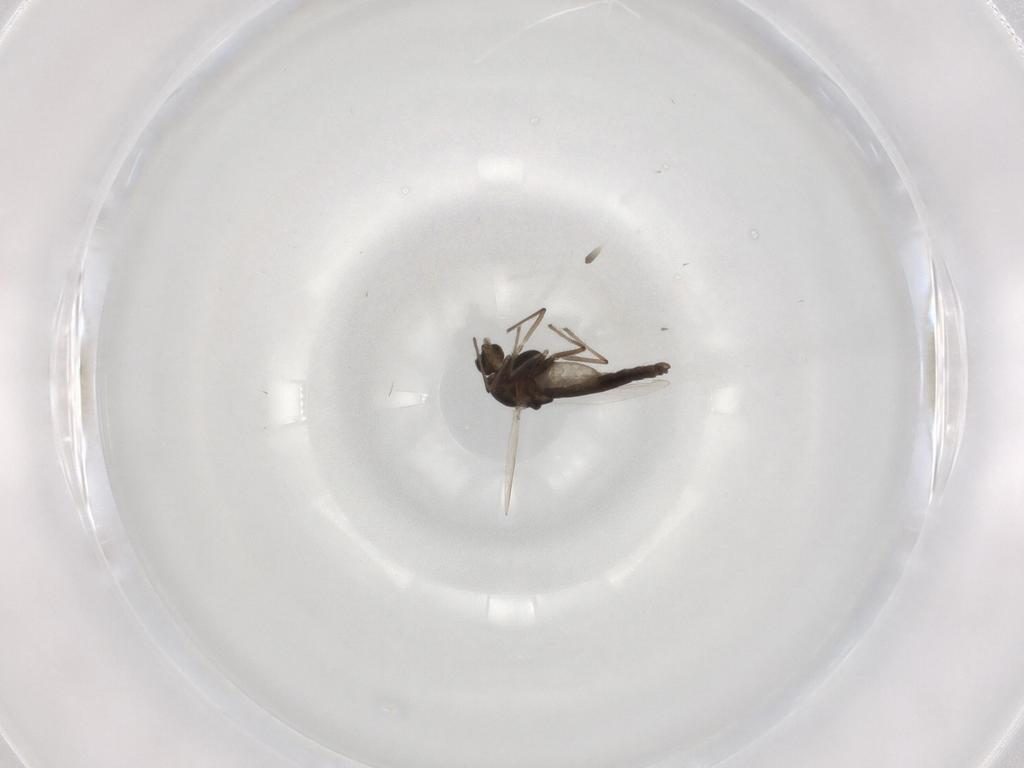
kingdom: Animalia
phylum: Arthropoda
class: Insecta
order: Diptera
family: Chironomidae
